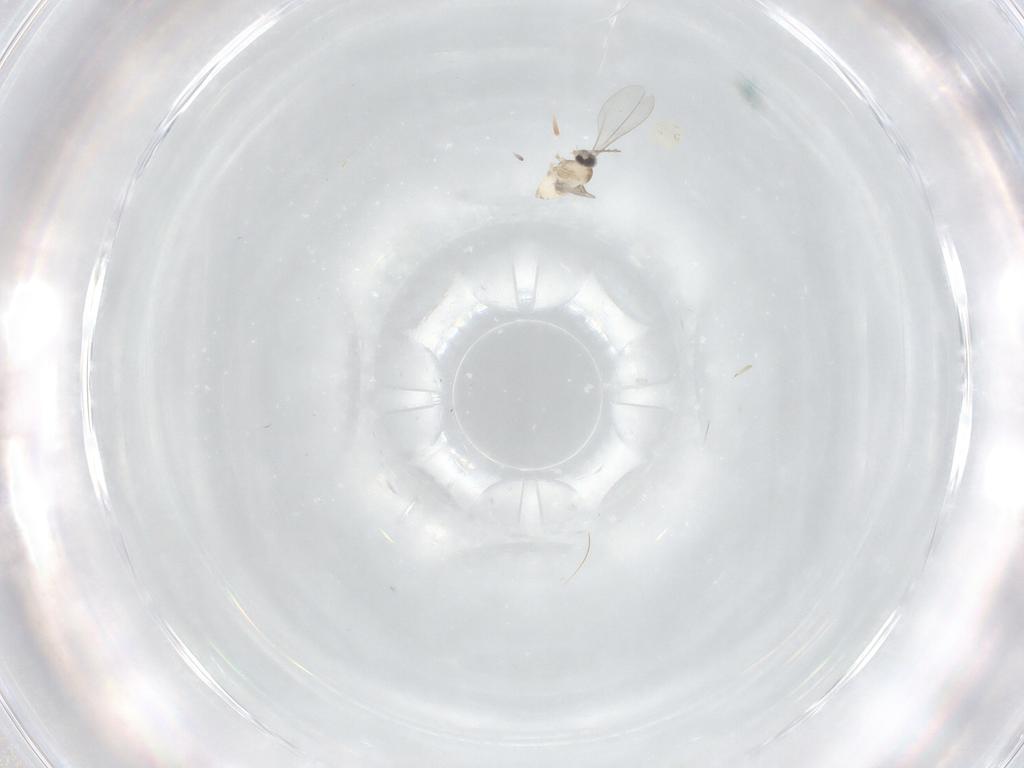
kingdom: Animalia
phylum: Arthropoda
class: Insecta
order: Diptera
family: Cecidomyiidae
